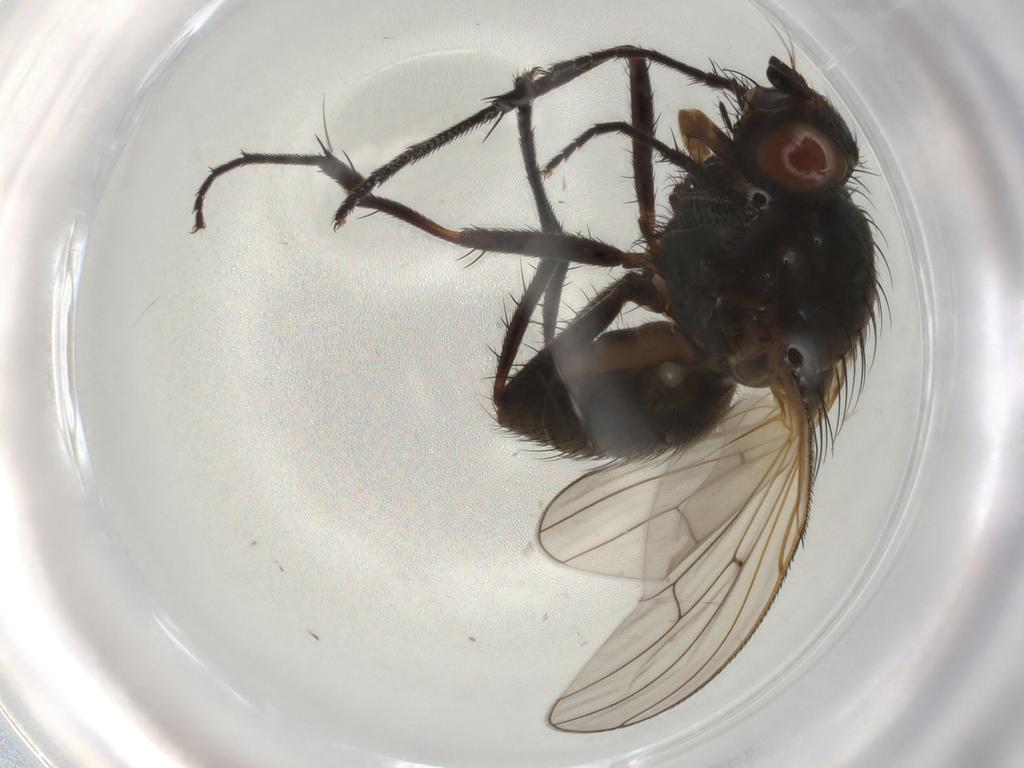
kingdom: Animalia
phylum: Arthropoda
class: Insecta
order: Diptera
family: Anthomyiidae
